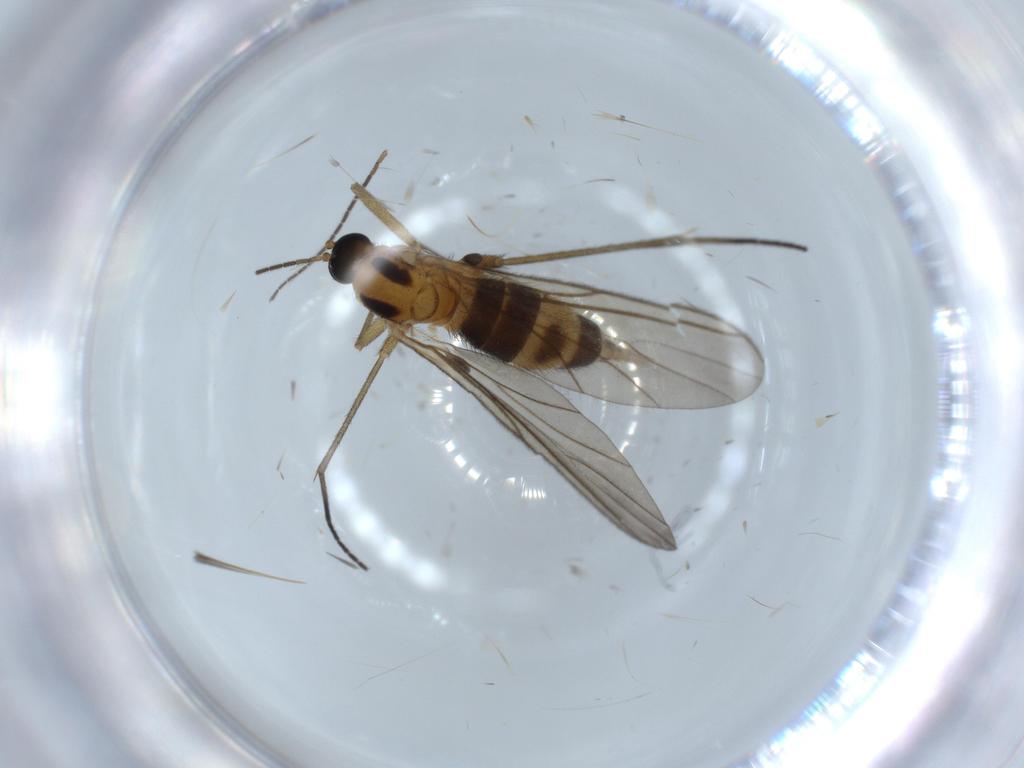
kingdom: Animalia
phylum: Arthropoda
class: Insecta
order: Diptera
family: Sciaridae
